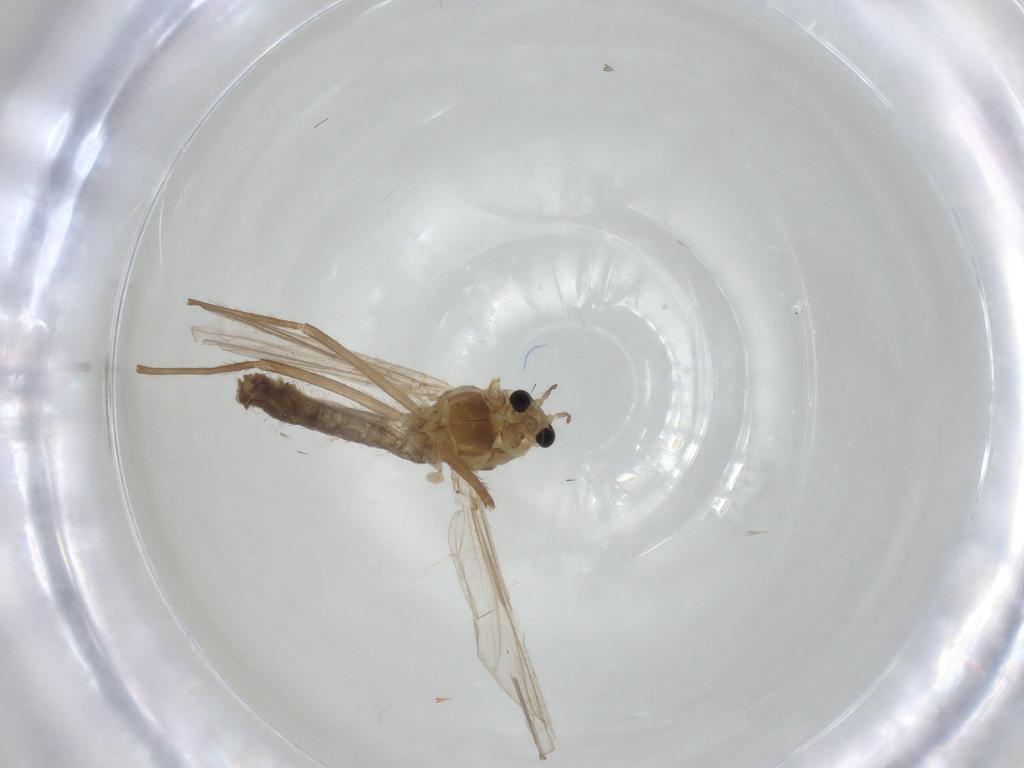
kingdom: Animalia
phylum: Arthropoda
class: Insecta
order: Diptera
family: Chironomidae
